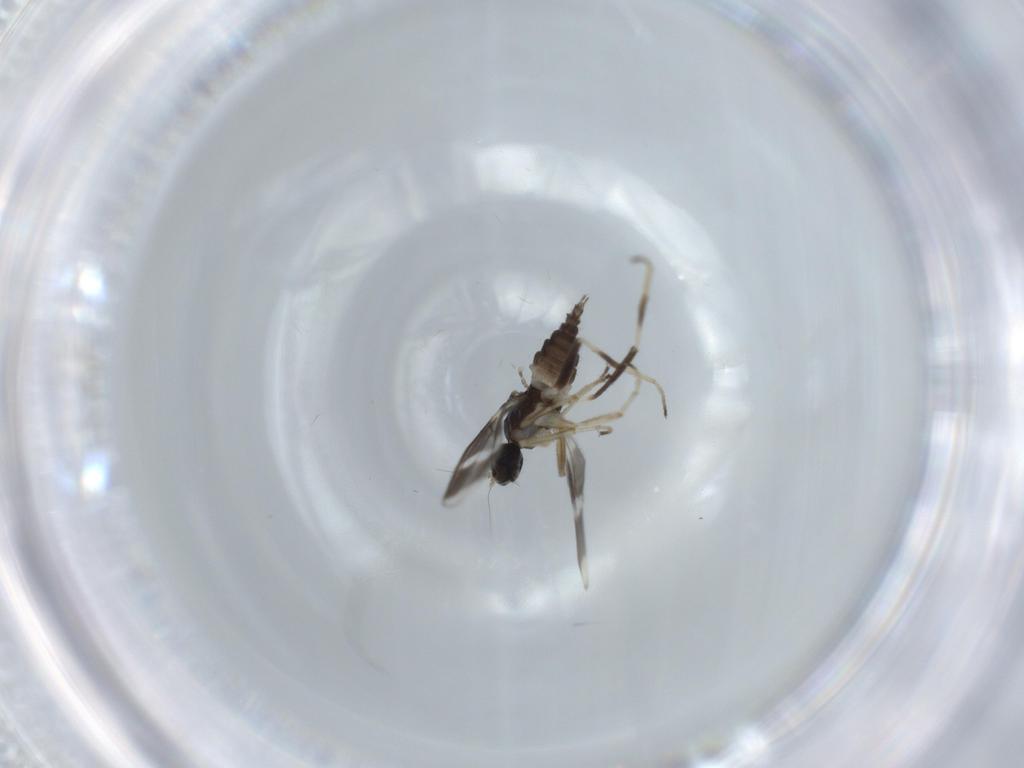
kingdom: Animalia
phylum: Arthropoda
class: Insecta
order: Diptera
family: Hybotidae
